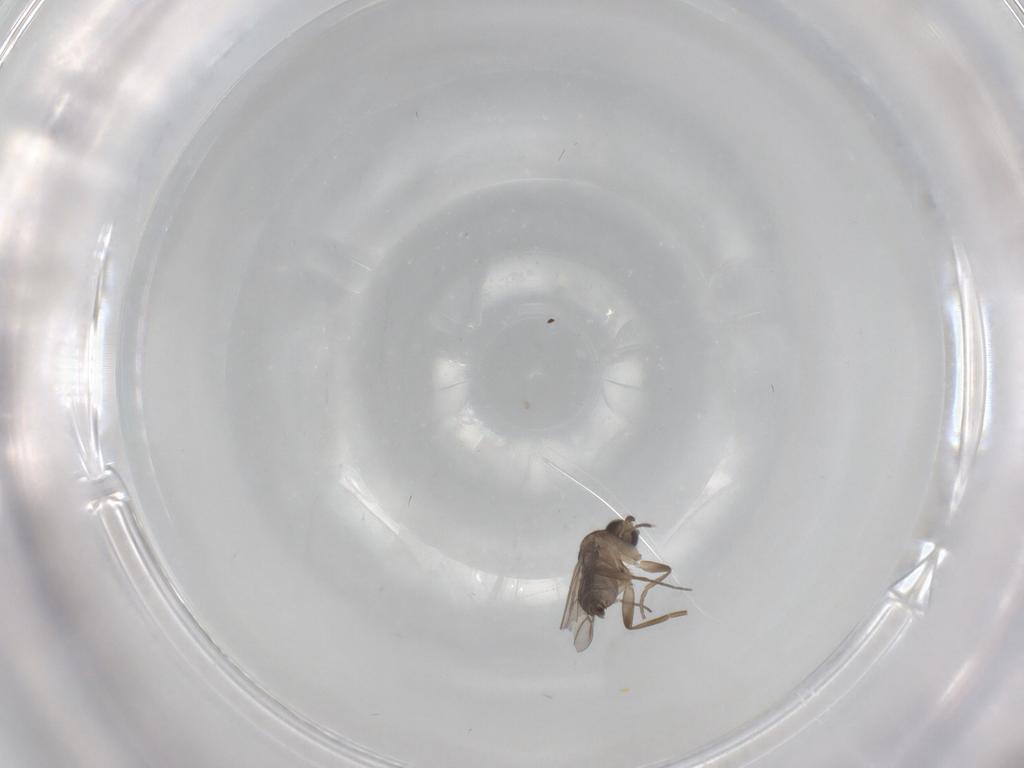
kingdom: Animalia
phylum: Arthropoda
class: Insecta
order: Diptera
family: Phoridae
